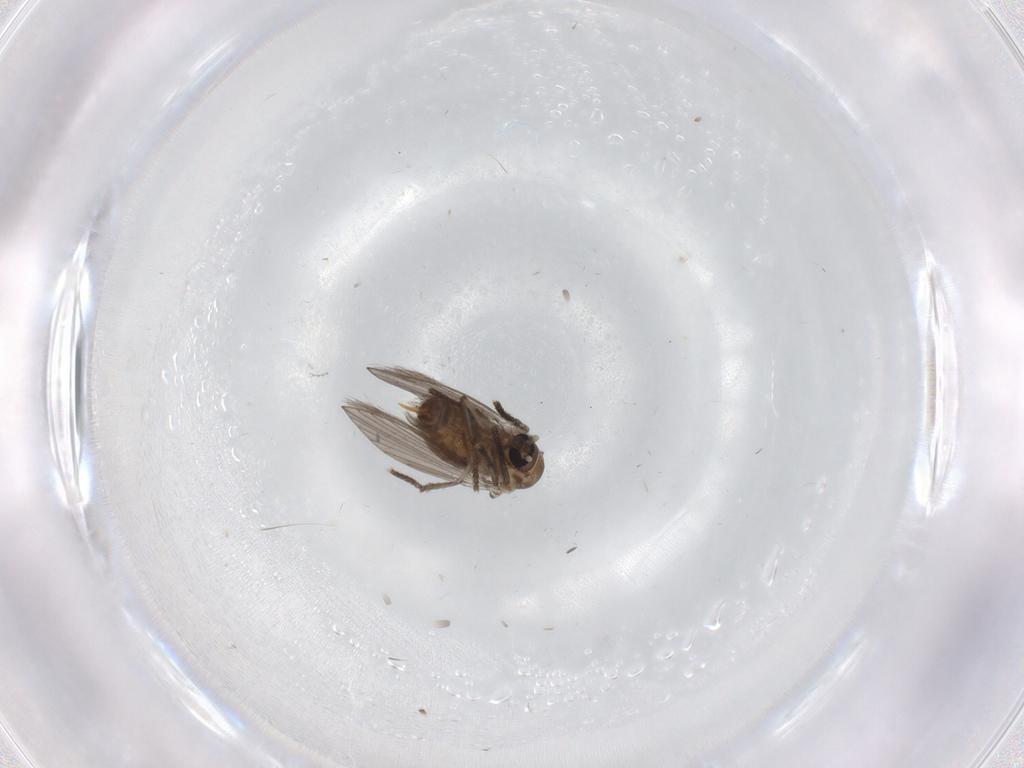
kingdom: Animalia
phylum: Arthropoda
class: Insecta
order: Diptera
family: Psychodidae
